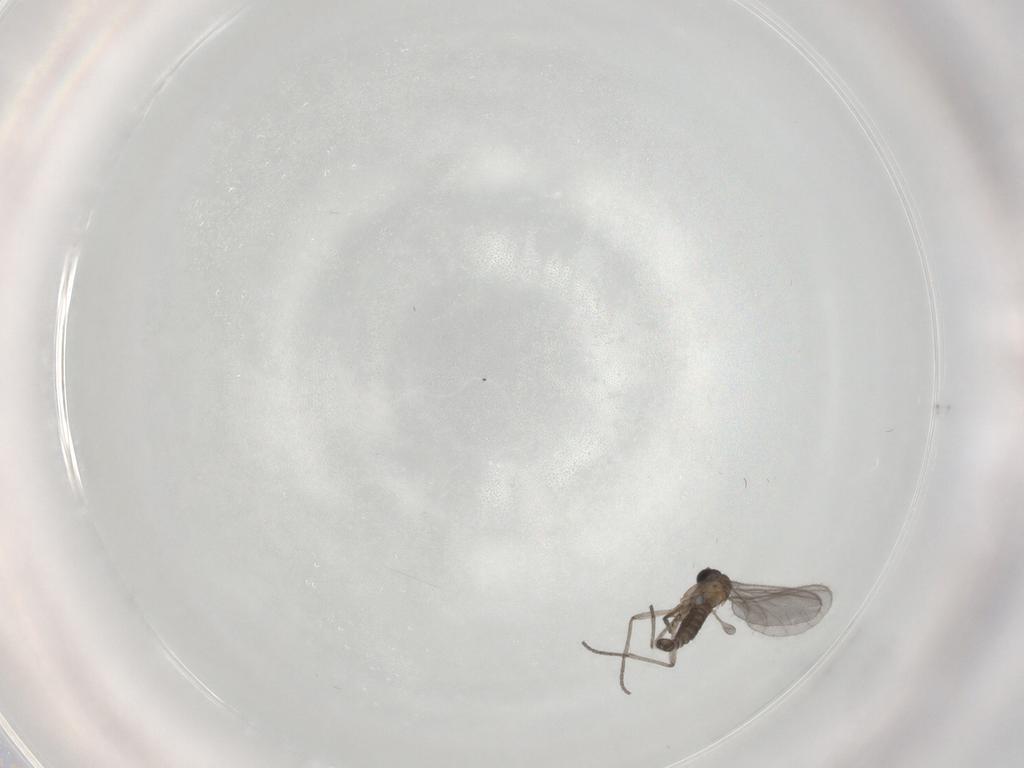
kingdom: Animalia
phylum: Arthropoda
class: Insecta
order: Diptera
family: Sciaridae
